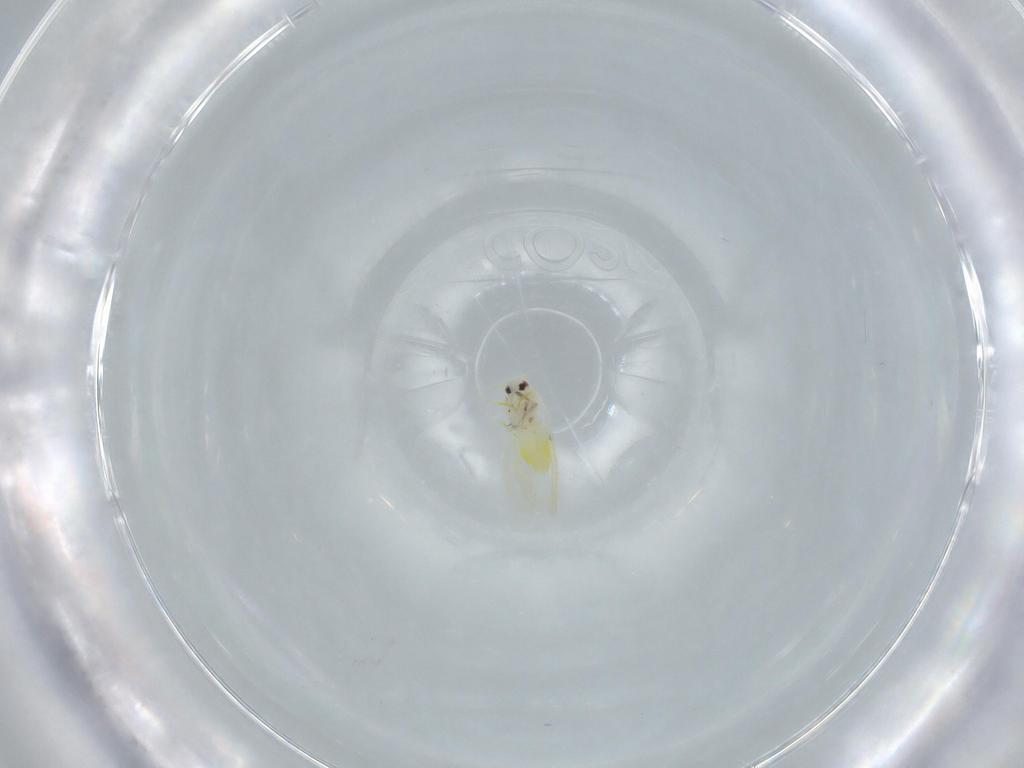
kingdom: Animalia
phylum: Arthropoda
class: Insecta
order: Hemiptera
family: Aleyrodidae
